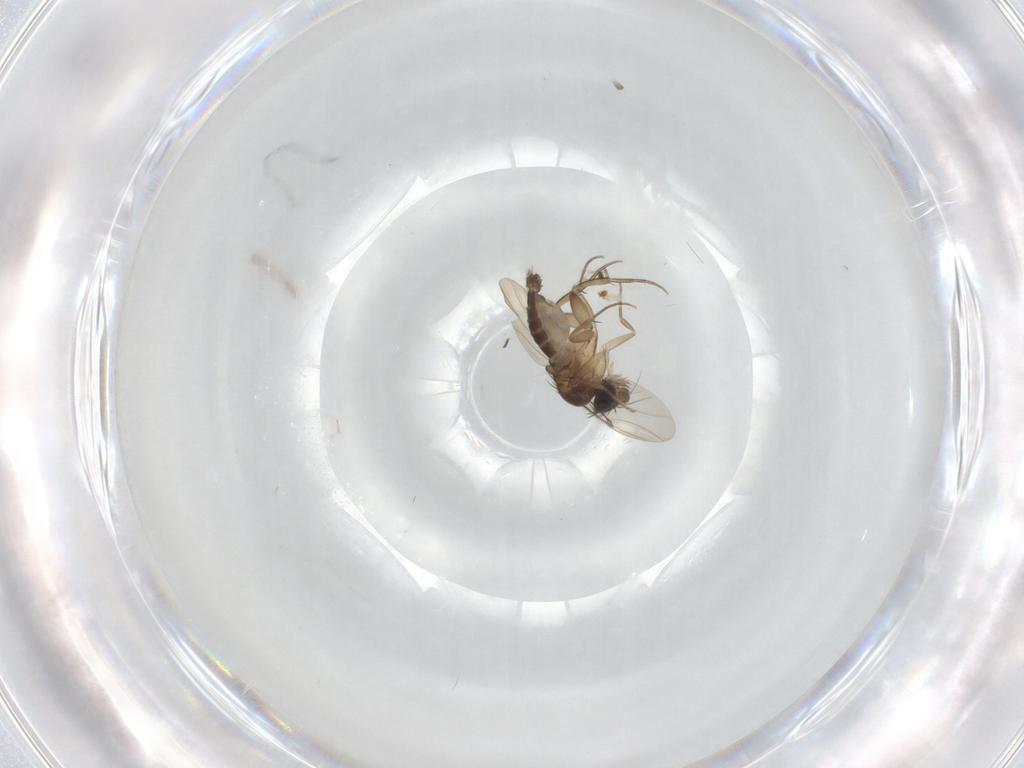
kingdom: Animalia
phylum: Arthropoda
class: Insecta
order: Diptera
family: Phoridae
